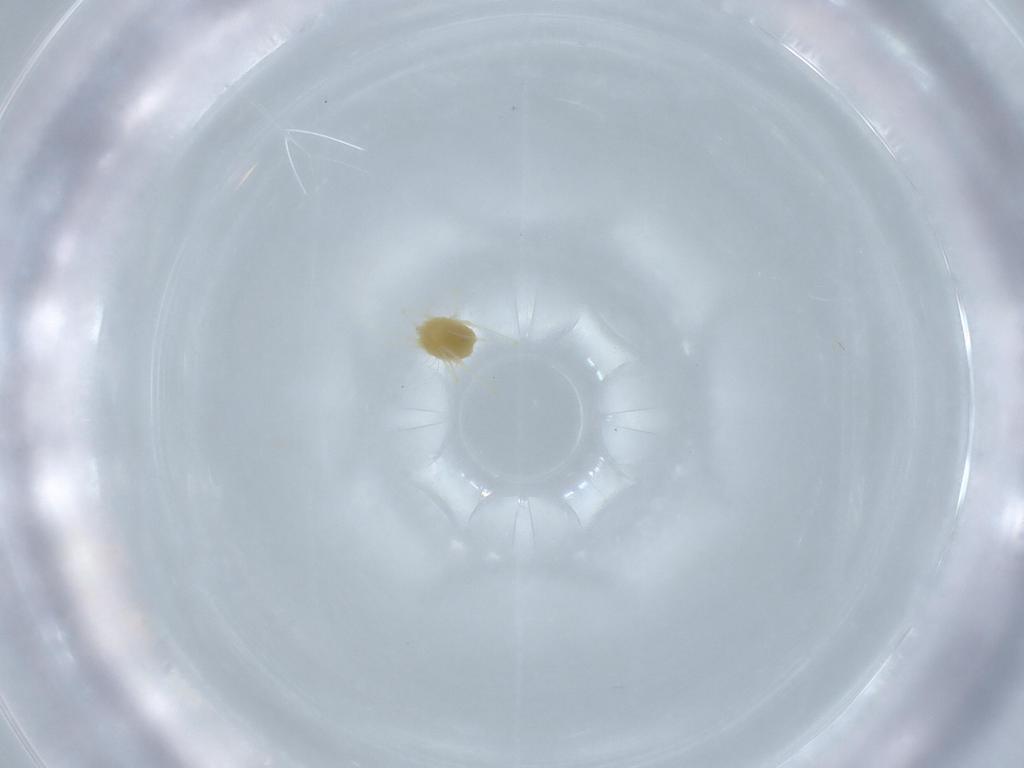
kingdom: Animalia
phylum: Arthropoda
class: Arachnida
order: Trombidiformes
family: Tetranychidae
